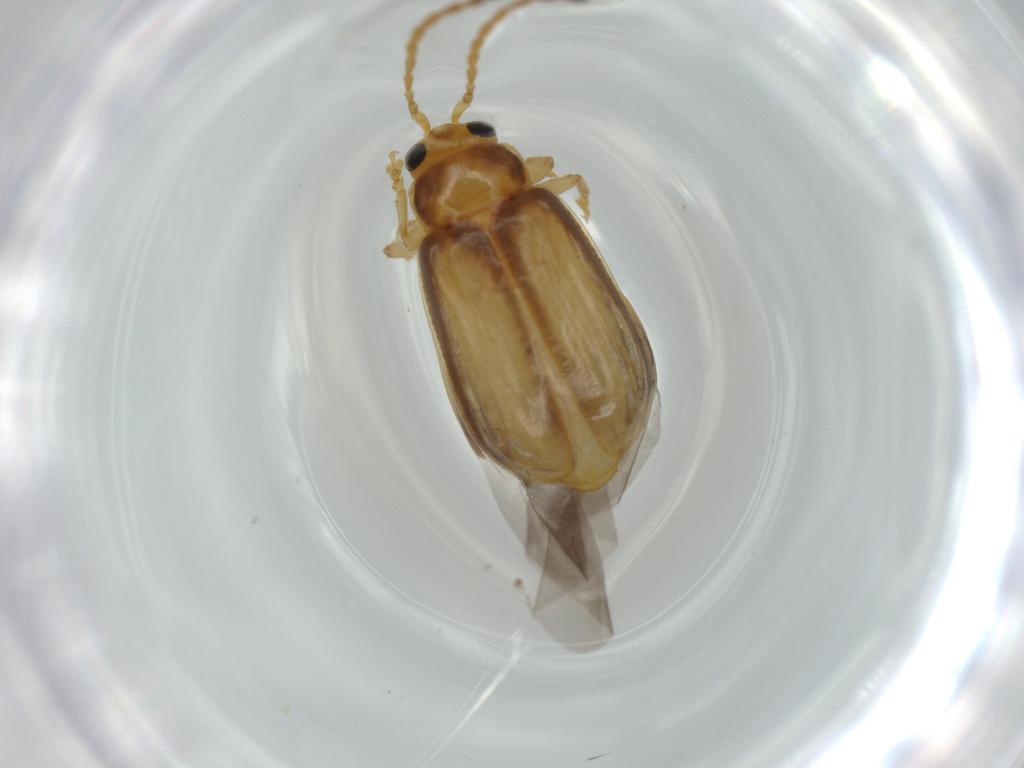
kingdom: Animalia
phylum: Arthropoda
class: Insecta
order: Coleoptera
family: Chrysomelidae
